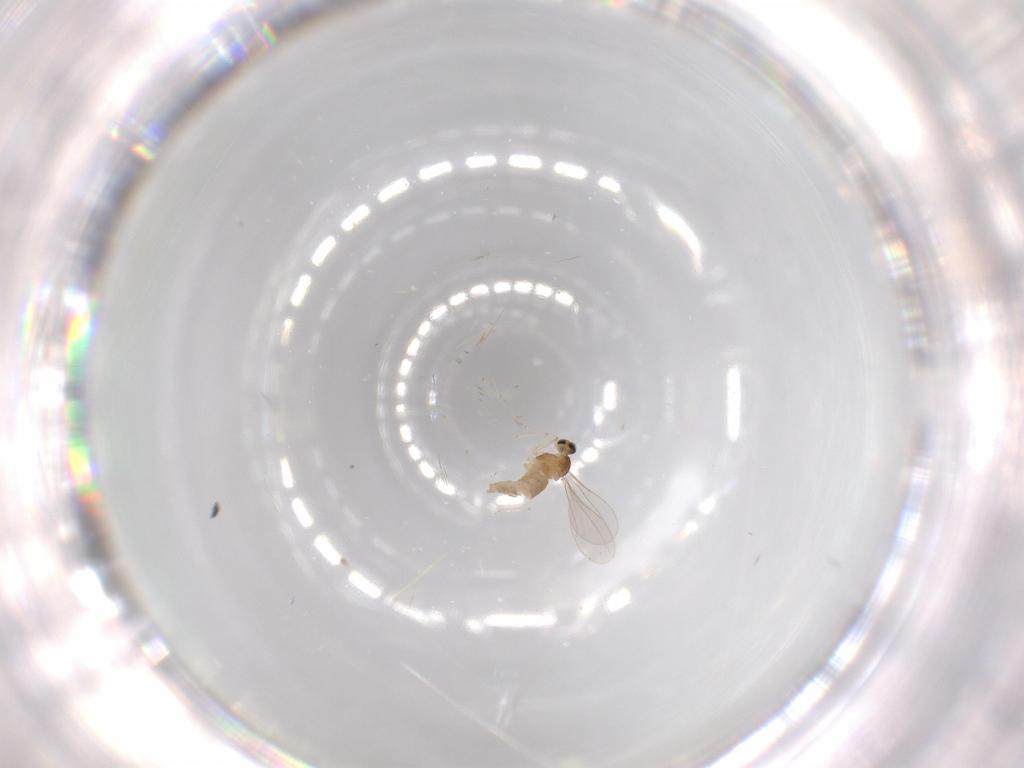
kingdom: Animalia
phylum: Arthropoda
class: Insecta
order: Diptera
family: Cecidomyiidae
